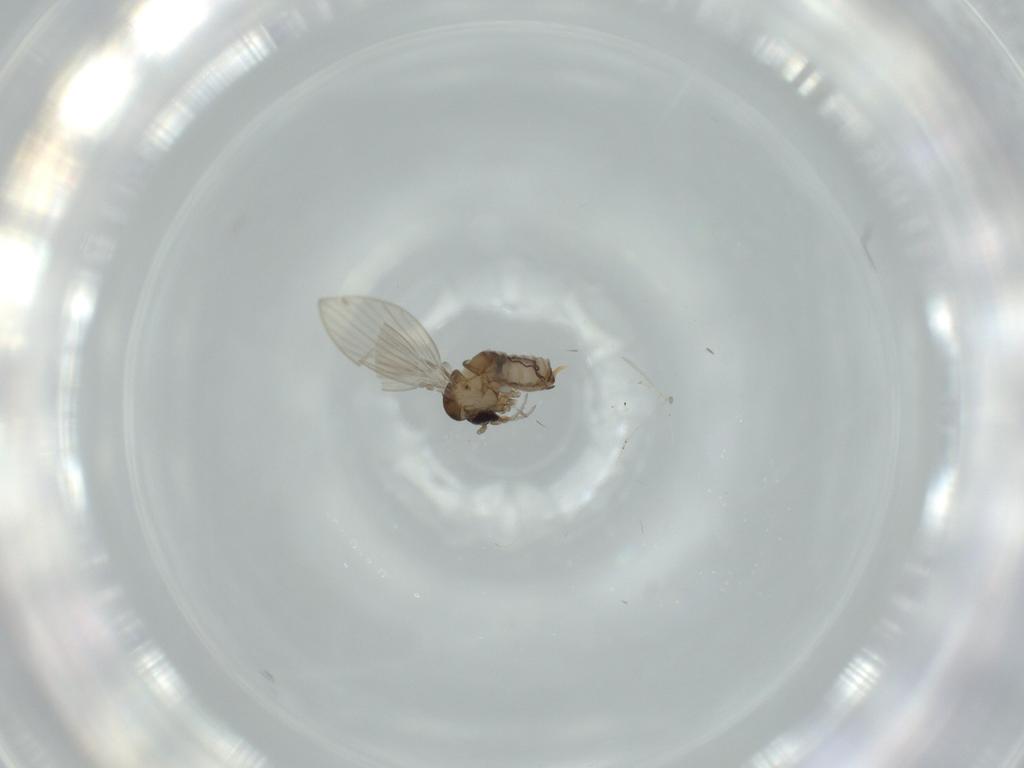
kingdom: Animalia
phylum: Arthropoda
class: Insecta
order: Diptera
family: Psychodidae
